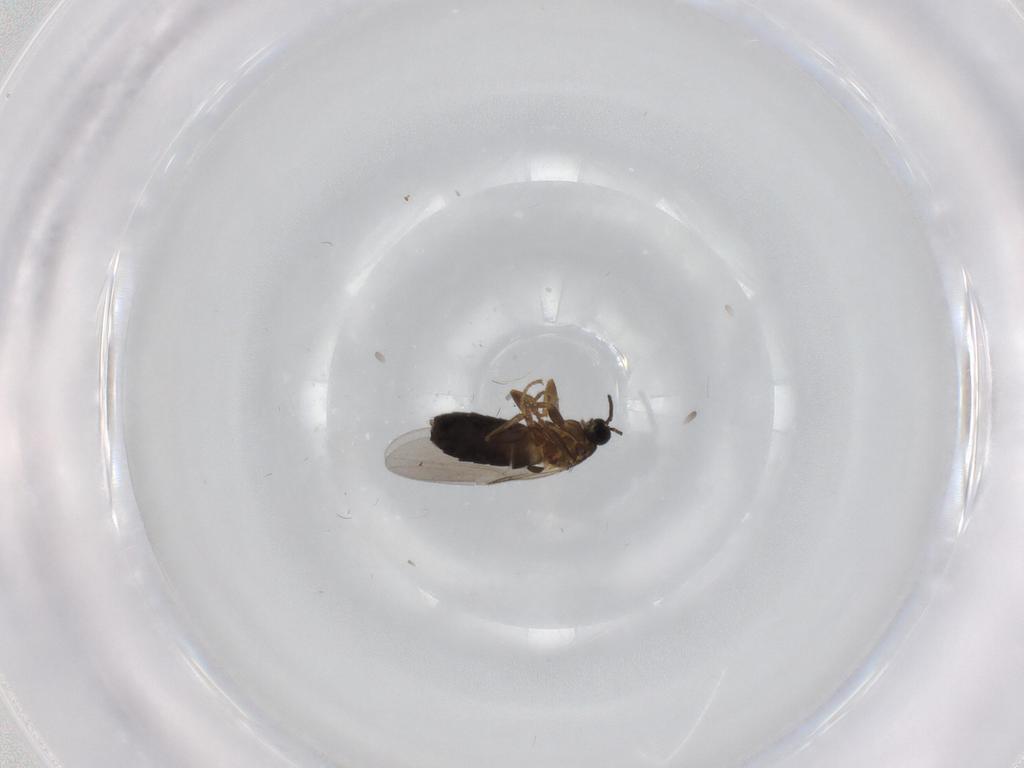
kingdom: Animalia
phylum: Arthropoda
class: Insecta
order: Diptera
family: Scatopsidae
